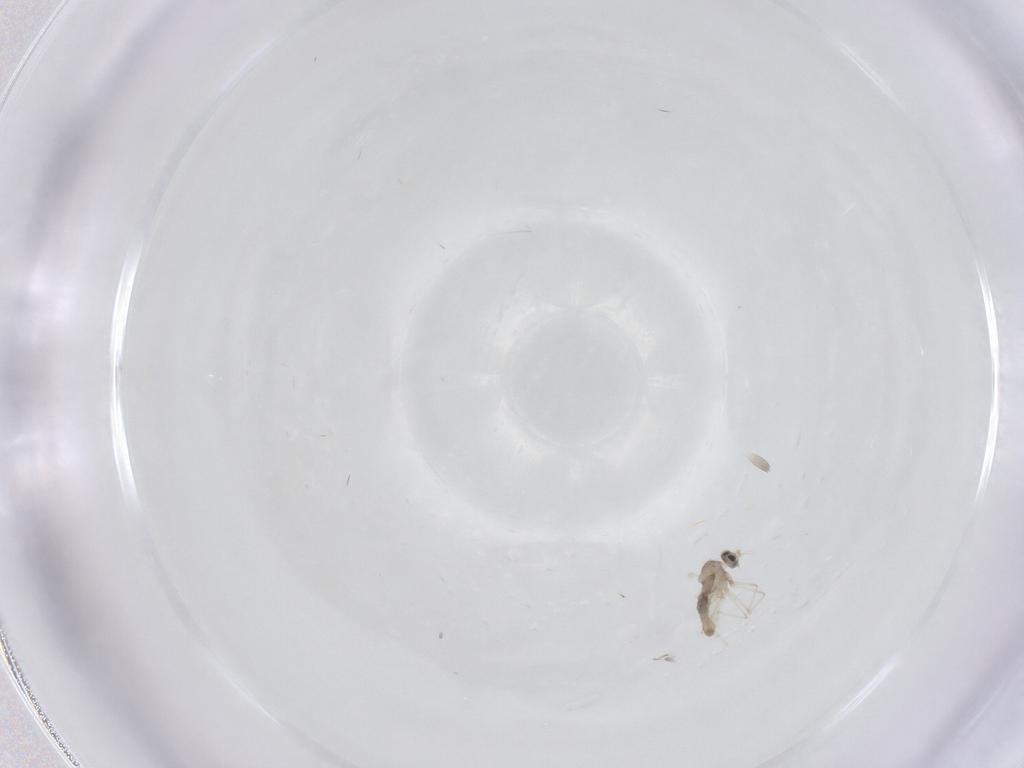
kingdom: Animalia
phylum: Arthropoda
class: Insecta
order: Diptera
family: Cecidomyiidae
